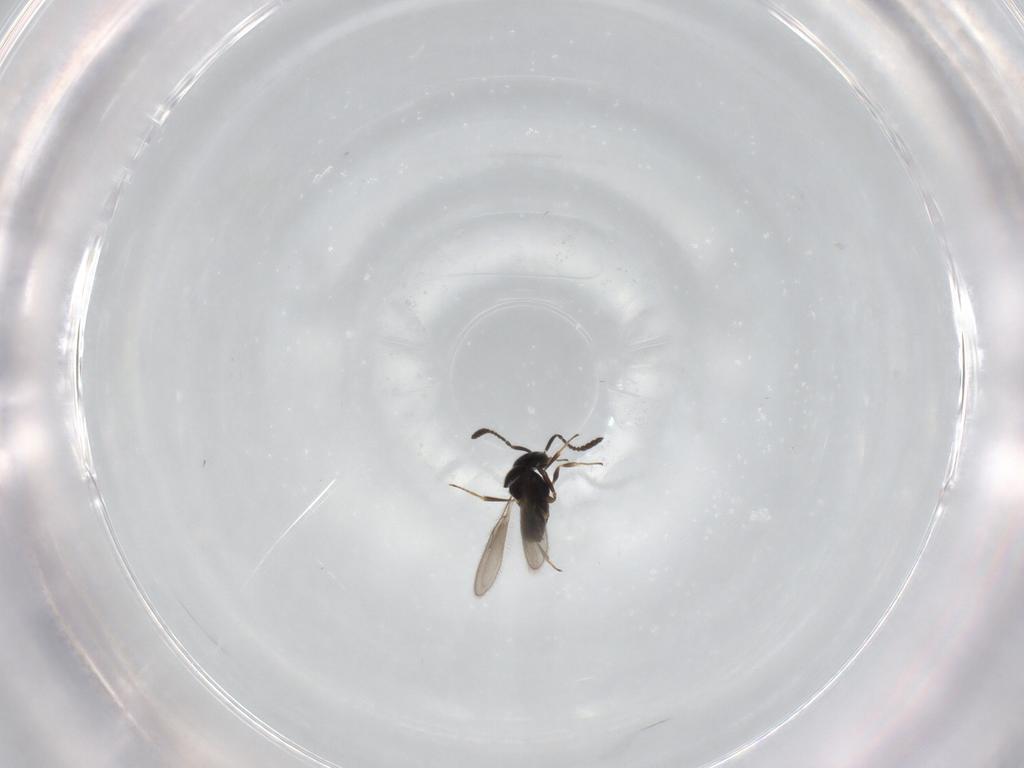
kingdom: Animalia
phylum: Arthropoda
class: Insecta
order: Hymenoptera
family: Scelionidae
